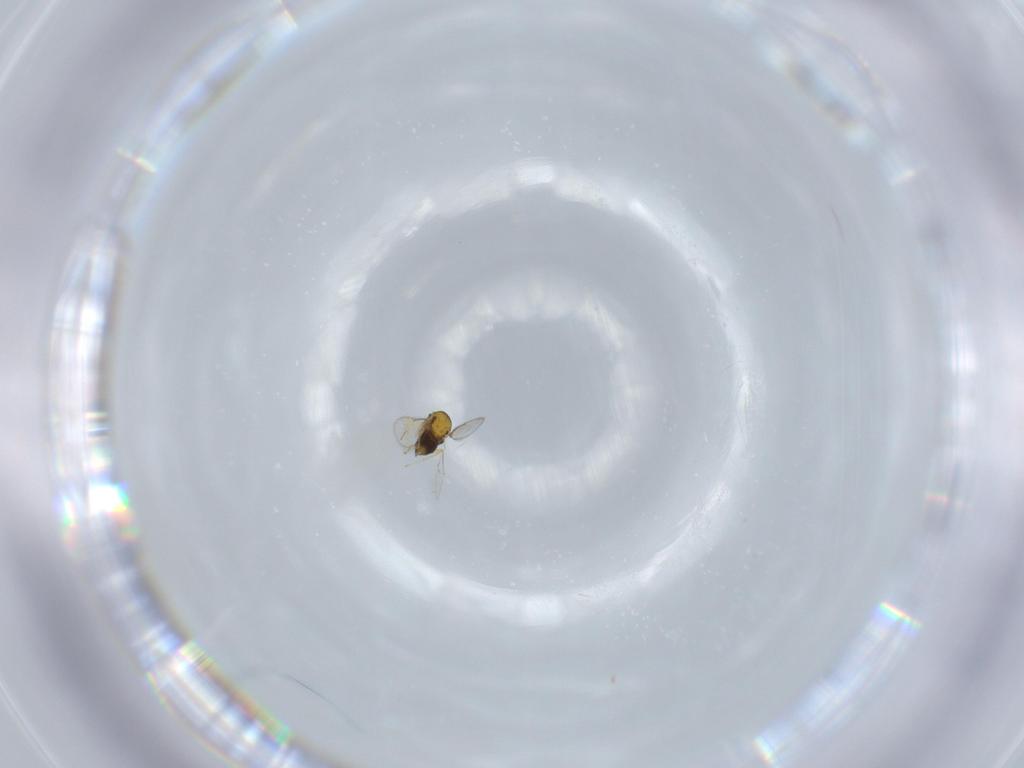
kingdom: Animalia
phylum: Arthropoda
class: Insecta
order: Hymenoptera
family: Aphelinidae
